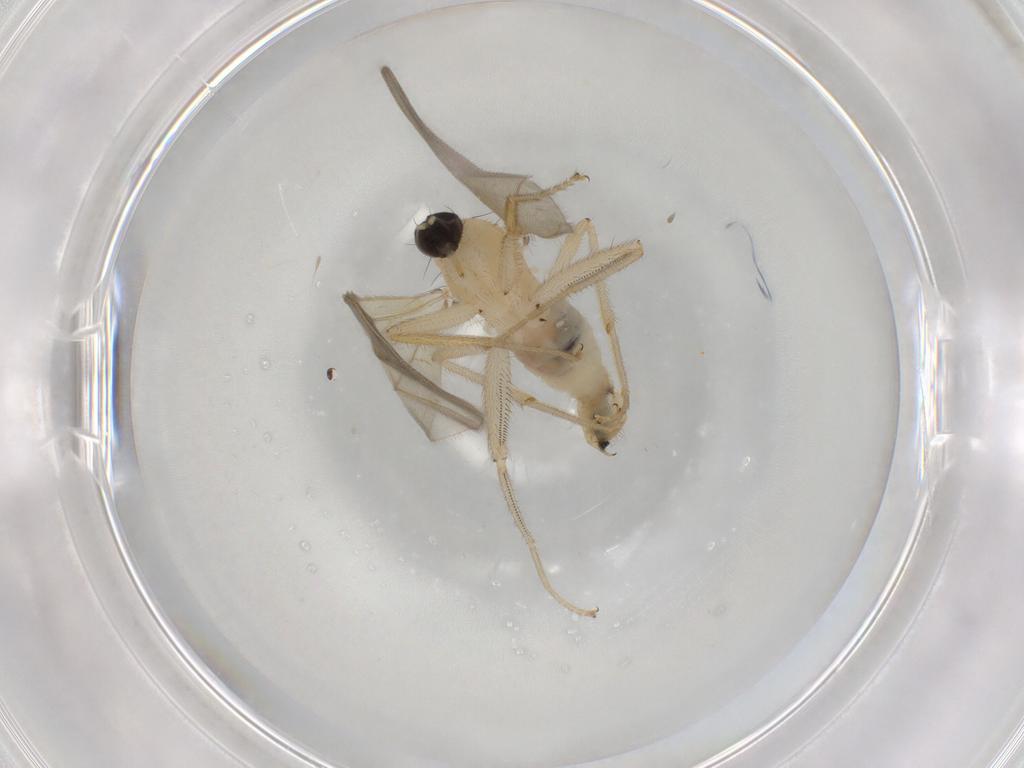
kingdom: Animalia
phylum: Arthropoda
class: Insecta
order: Diptera
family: Hybotidae
